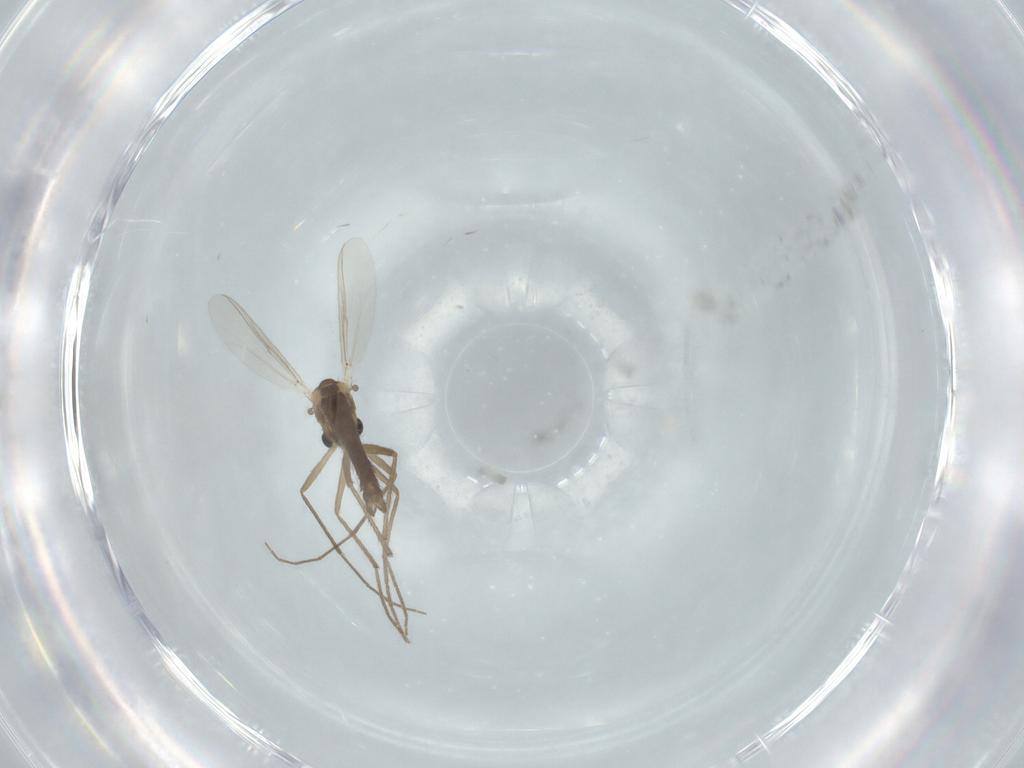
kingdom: Animalia
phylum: Arthropoda
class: Insecta
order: Diptera
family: Chironomidae
